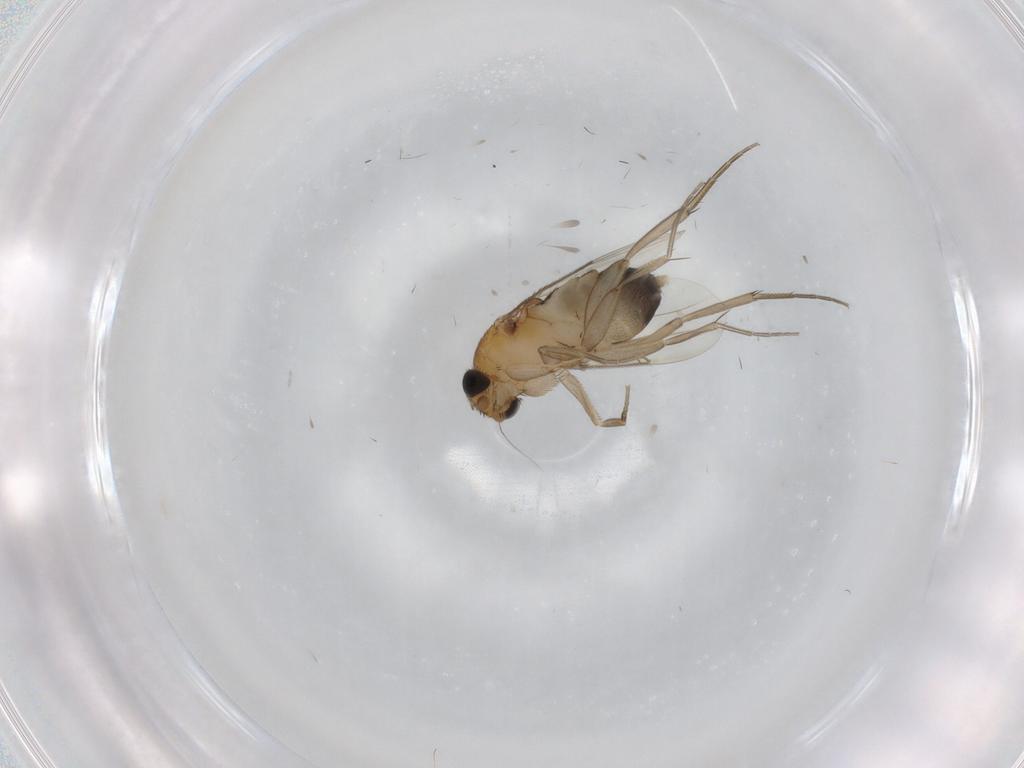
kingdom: Animalia
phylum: Arthropoda
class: Insecta
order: Diptera
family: Phoridae
